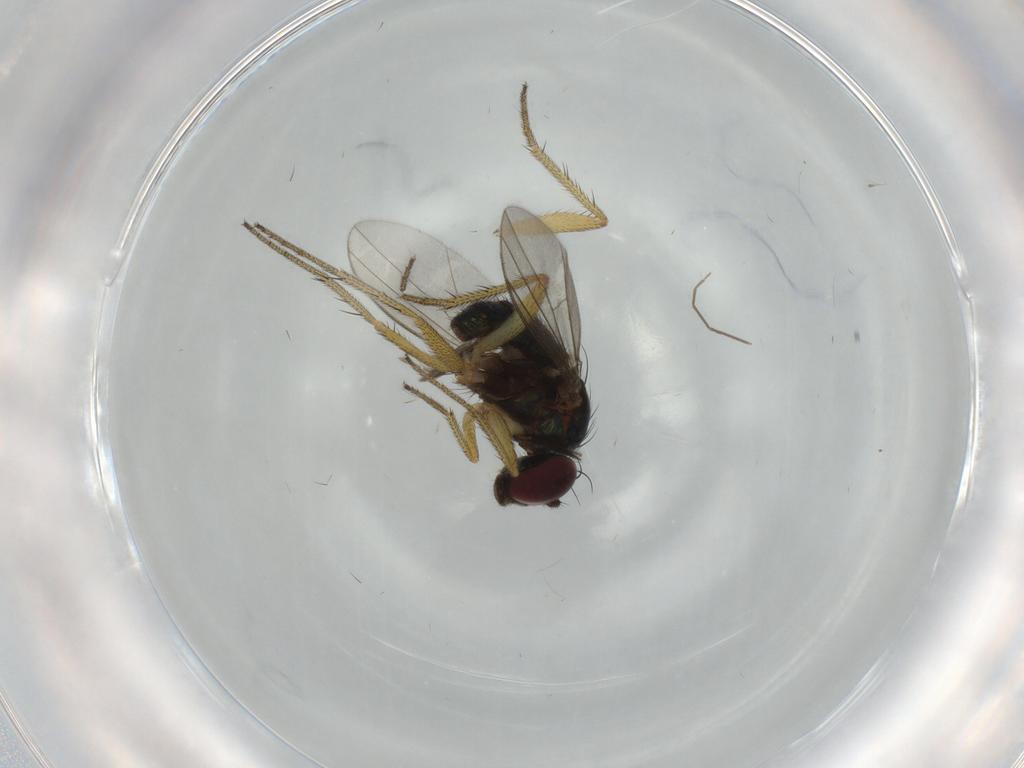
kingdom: Animalia
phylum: Arthropoda
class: Insecta
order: Diptera
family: Dolichopodidae
